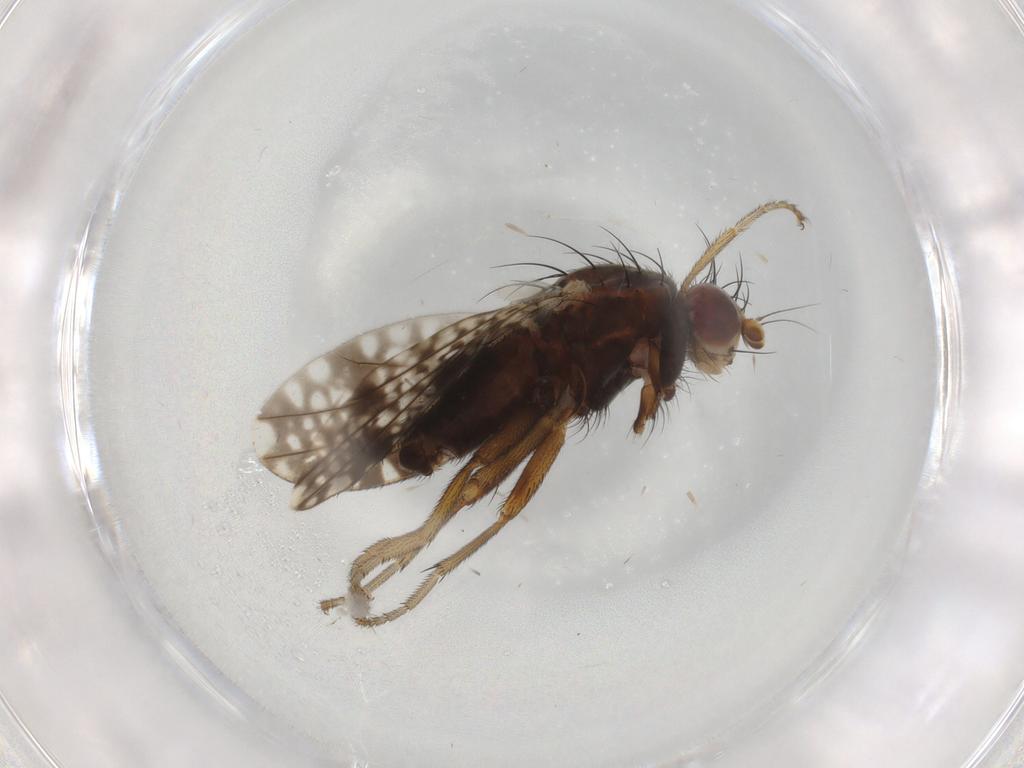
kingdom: Animalia
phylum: Arthropoda
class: Insecta
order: Diptera
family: Tephritidae
